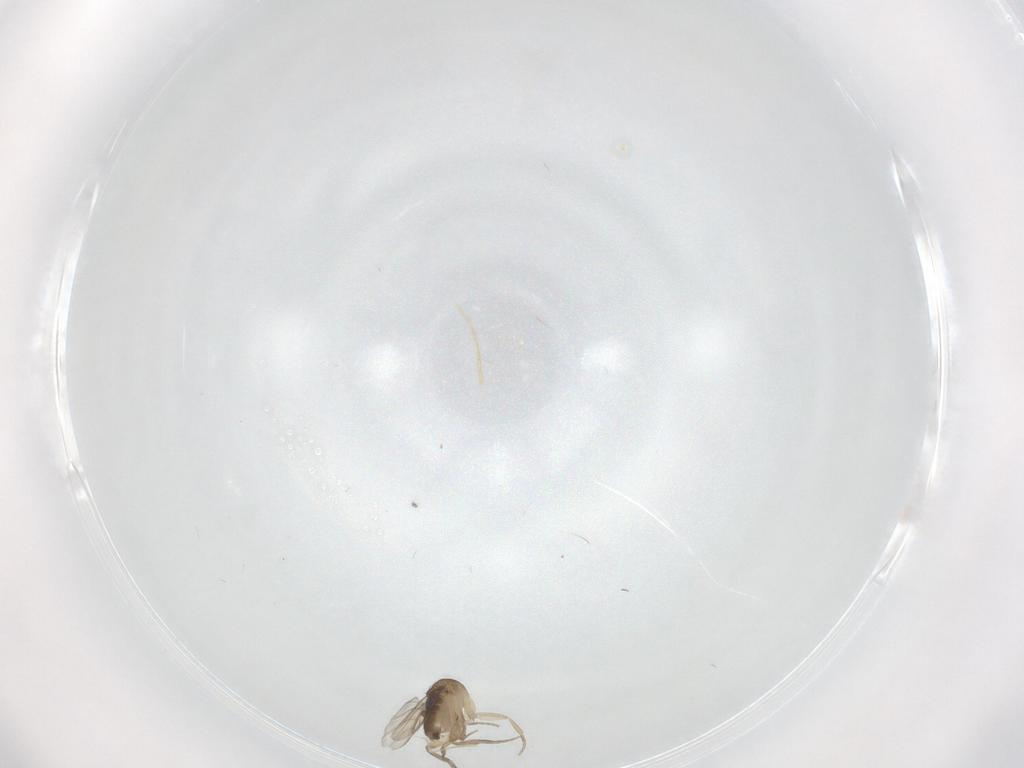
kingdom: Animalia
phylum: Arthropoda
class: Insecta
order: Diptera
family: Phoridae
